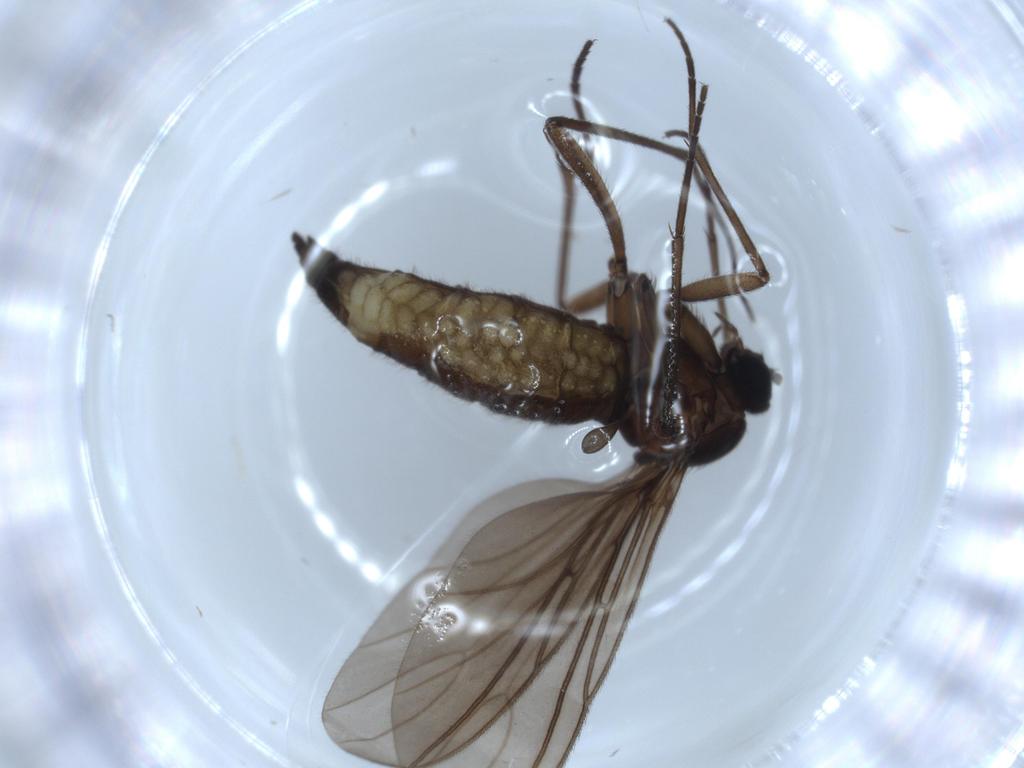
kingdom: Animalia
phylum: Arthropoda
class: Insecta
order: Diptera
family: Sciaridae
